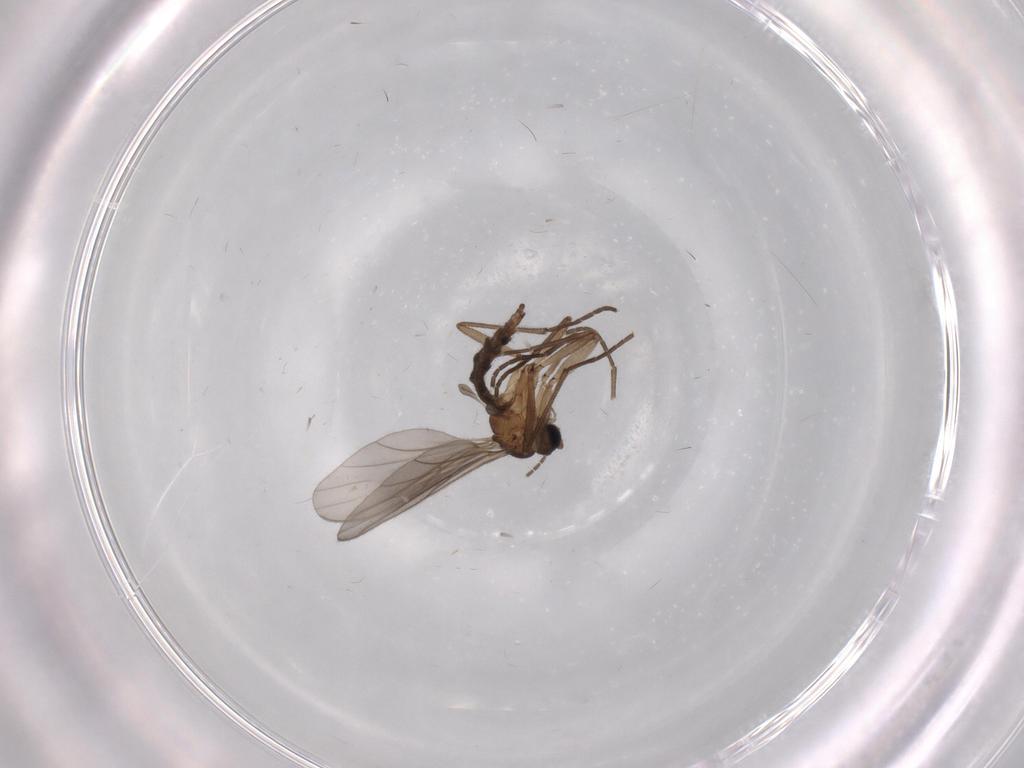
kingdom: Animalia
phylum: Arthropoda
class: Insecta
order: Diptera
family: Sciaridae
